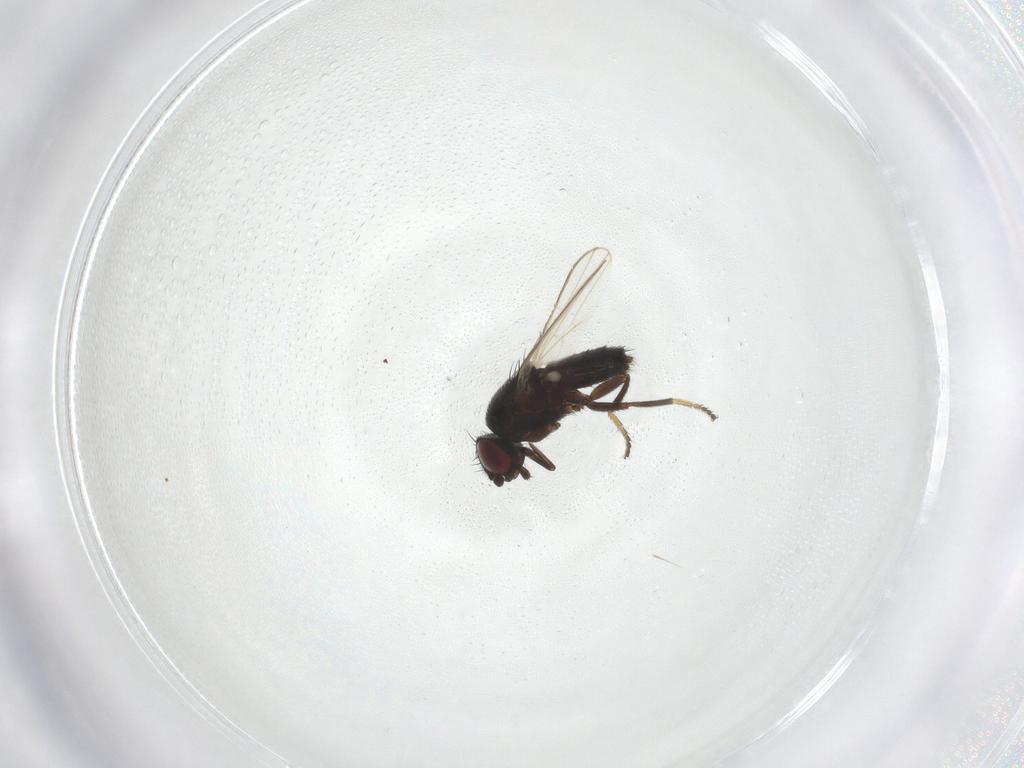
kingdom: Animalia
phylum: Arthropoda
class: Insecta
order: Diptera
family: Milichiidae
